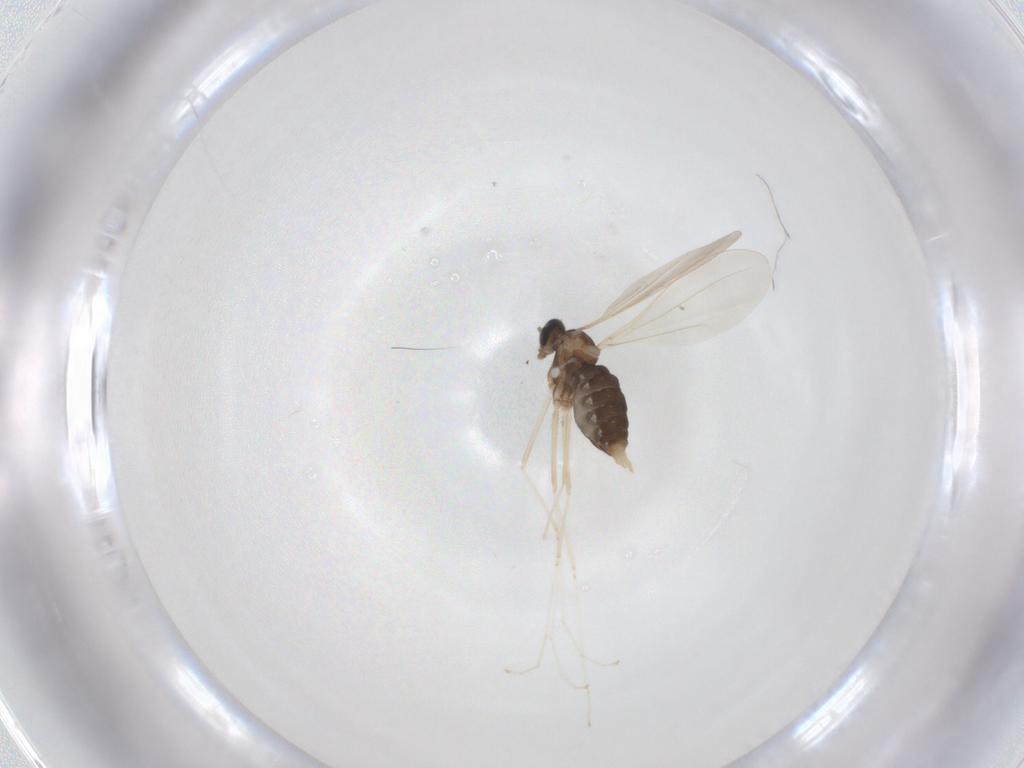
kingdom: Animalia
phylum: Arthropoda
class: Insecta
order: Diptera
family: Cecidomyiidae
